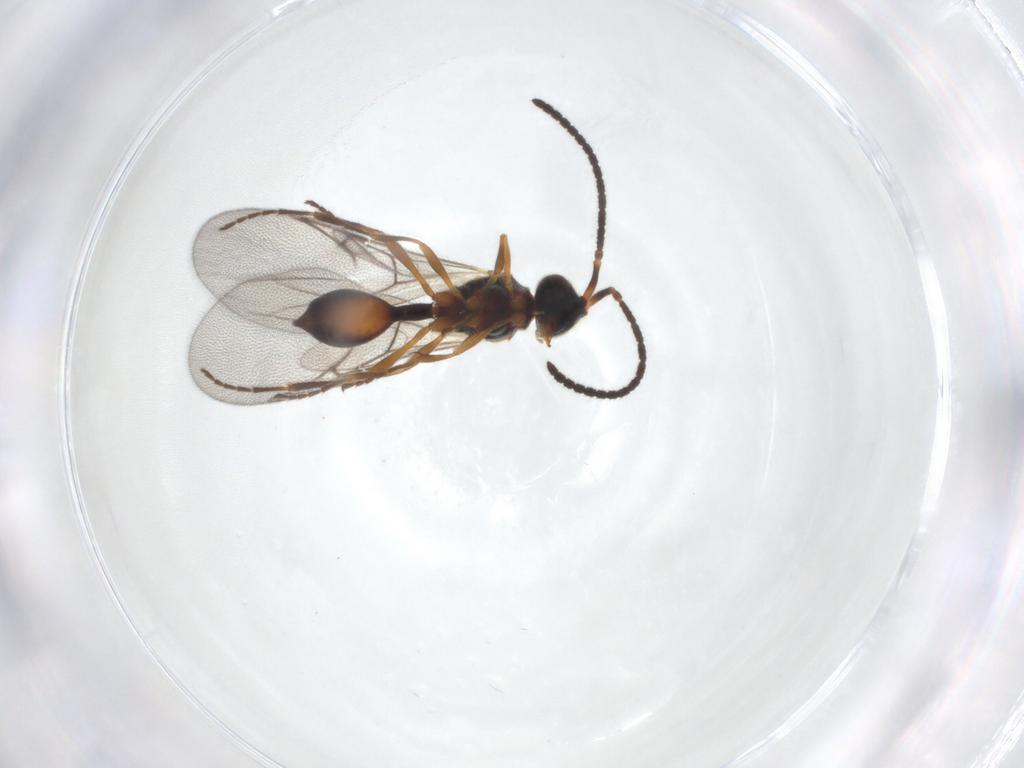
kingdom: Animalia
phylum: Arthropoda
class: Insecta
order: Hymenoptera
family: Diapriidae
